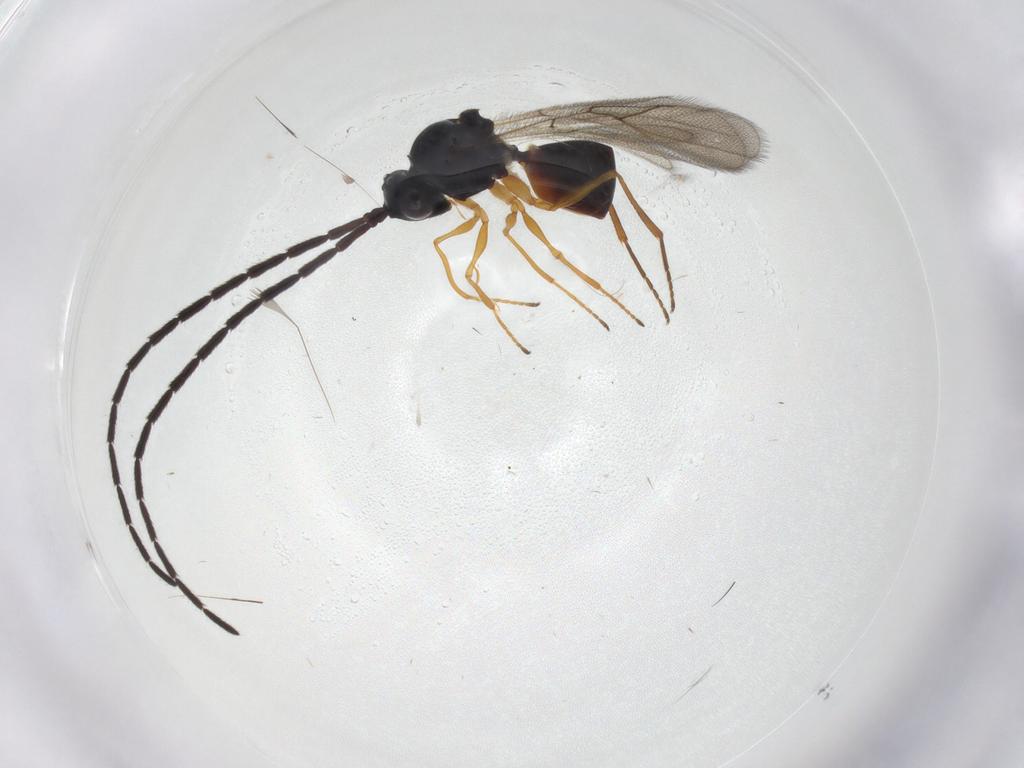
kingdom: Animalia
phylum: Arthropoda
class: Insecta
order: Hymenoptera
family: Figitidae
